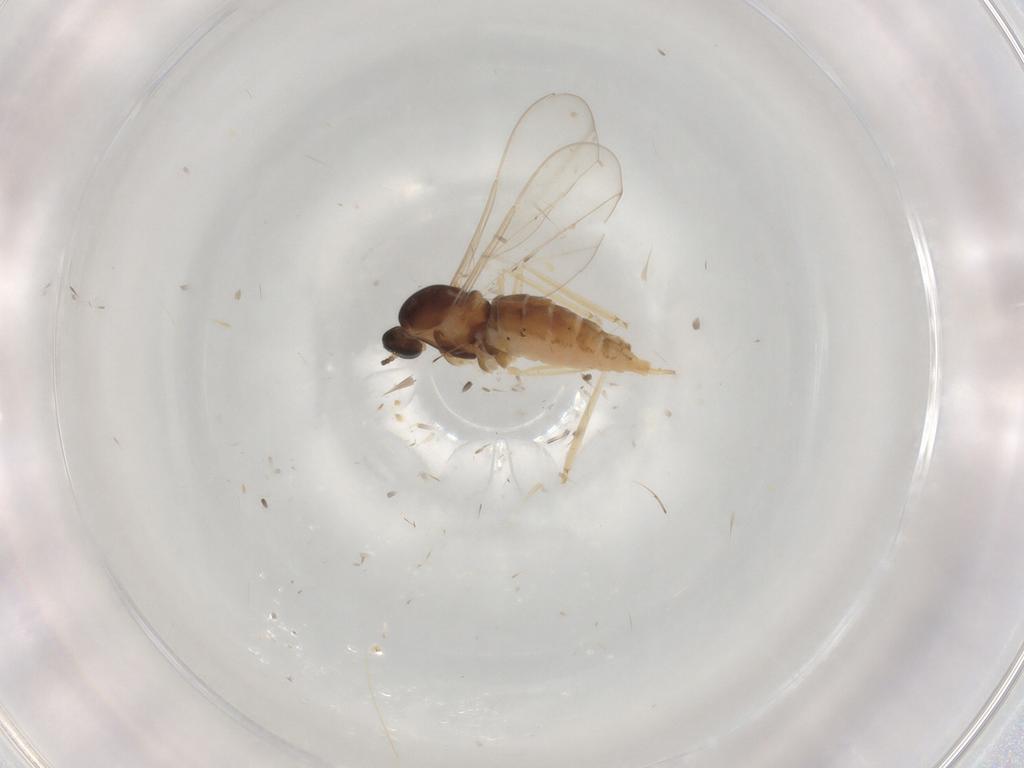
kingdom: Animalia
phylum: Arthropoda
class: Insecta
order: Diptera
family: Cecidomyiidae
